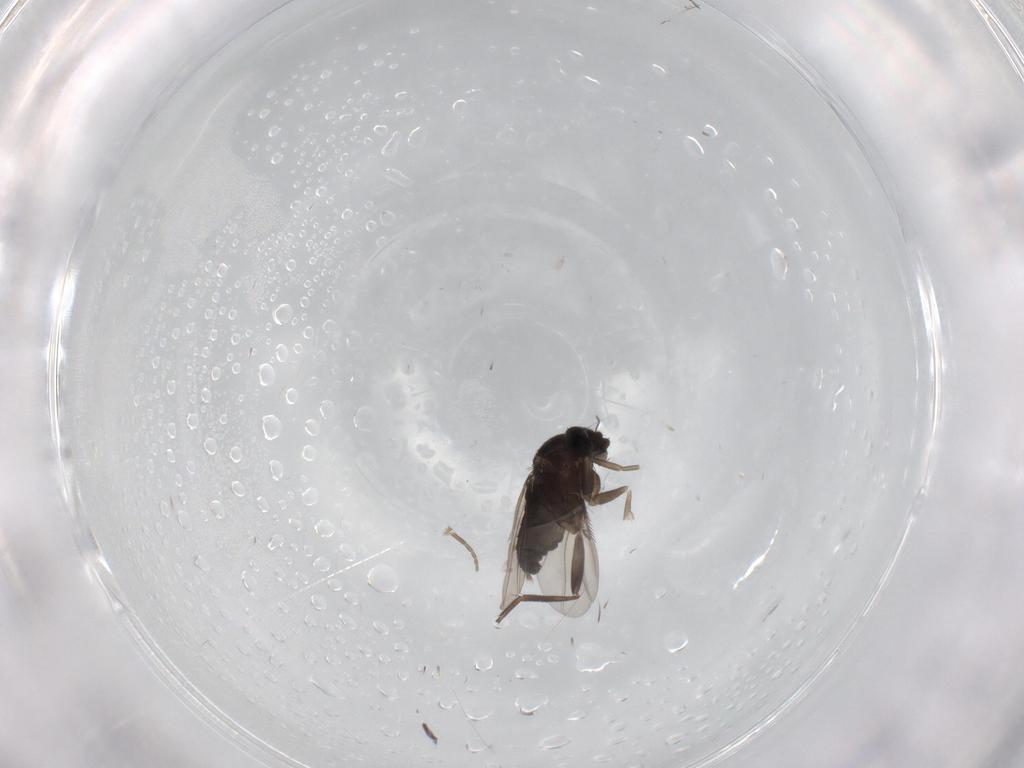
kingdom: Animalia
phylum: Arthropoda
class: Insecta
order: Diptera
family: Phoridae
